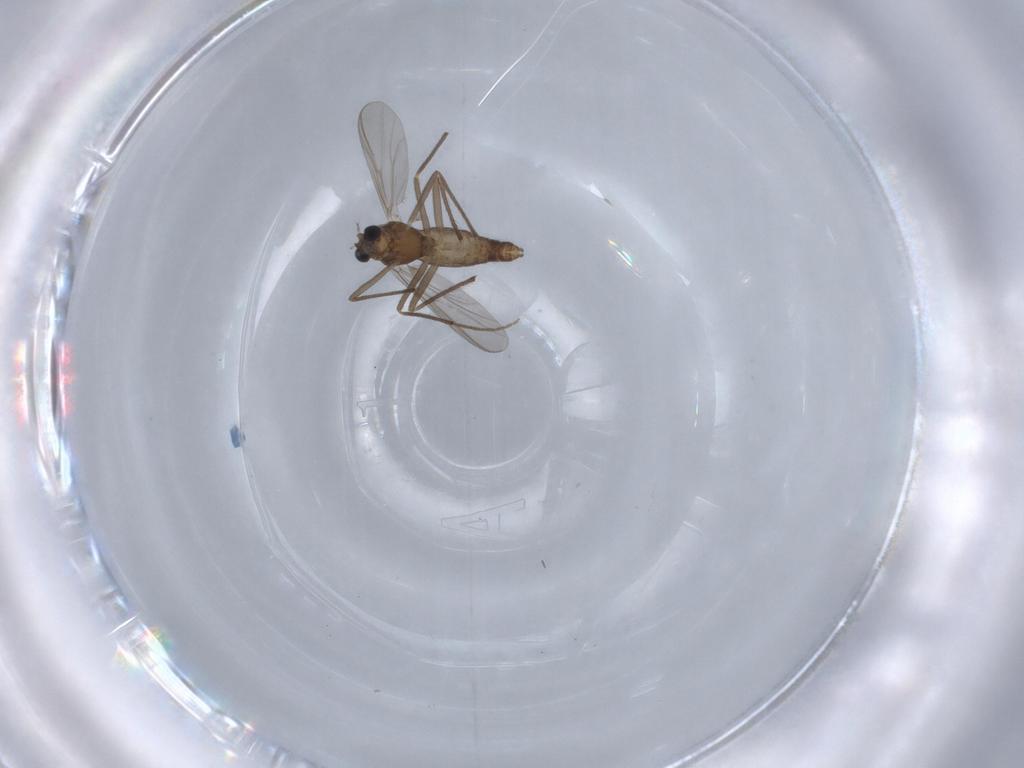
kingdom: Animalia
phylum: Arthropoda
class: Insecta
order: Diptera
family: Chironomidae
